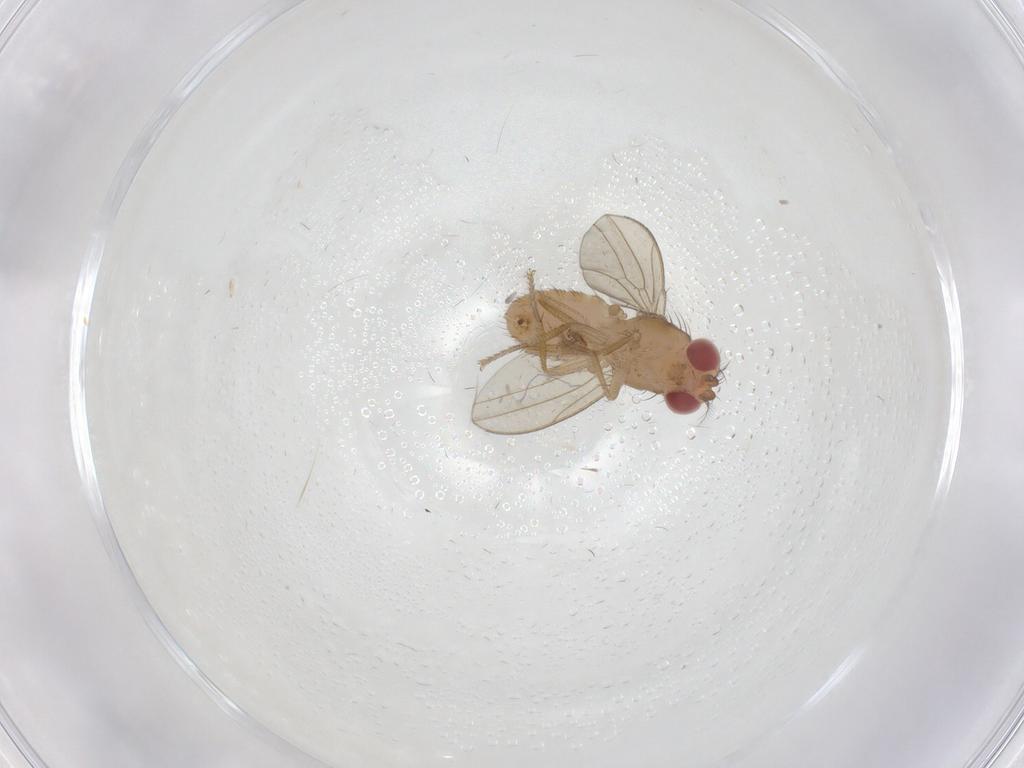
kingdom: Animalia
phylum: Arthropoda
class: Insecta
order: Diptera
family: Drosophilidae
